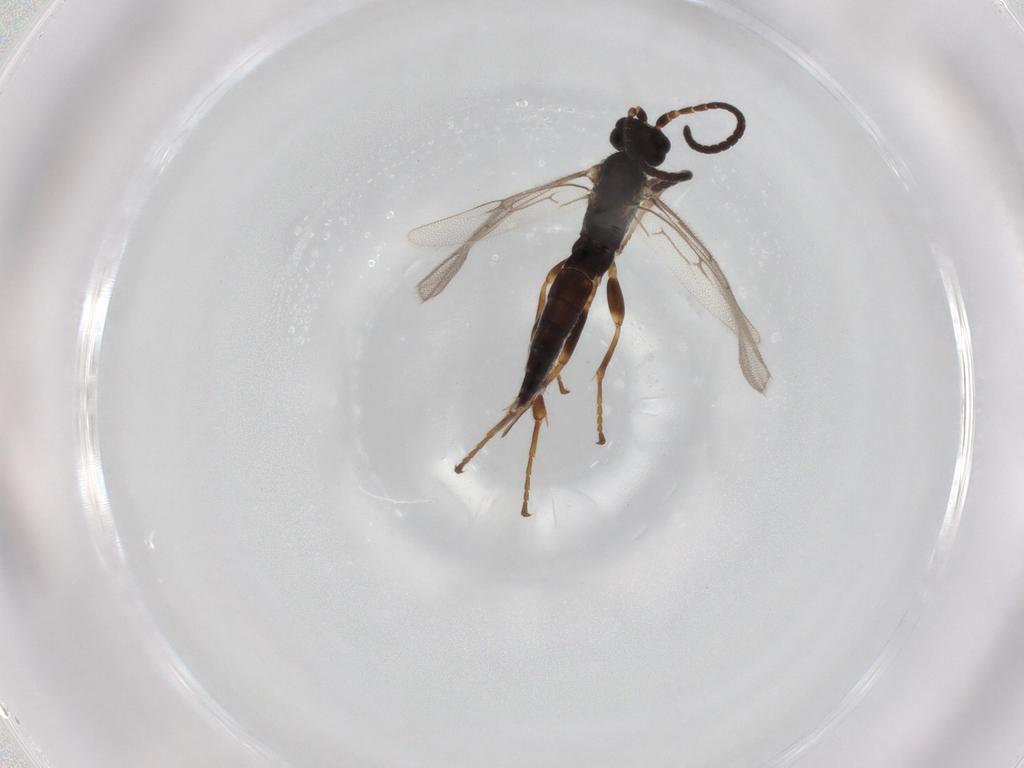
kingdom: Animalia
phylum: Arthropoda
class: Insecta
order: Hymenoptera
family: Ichneumonidae
